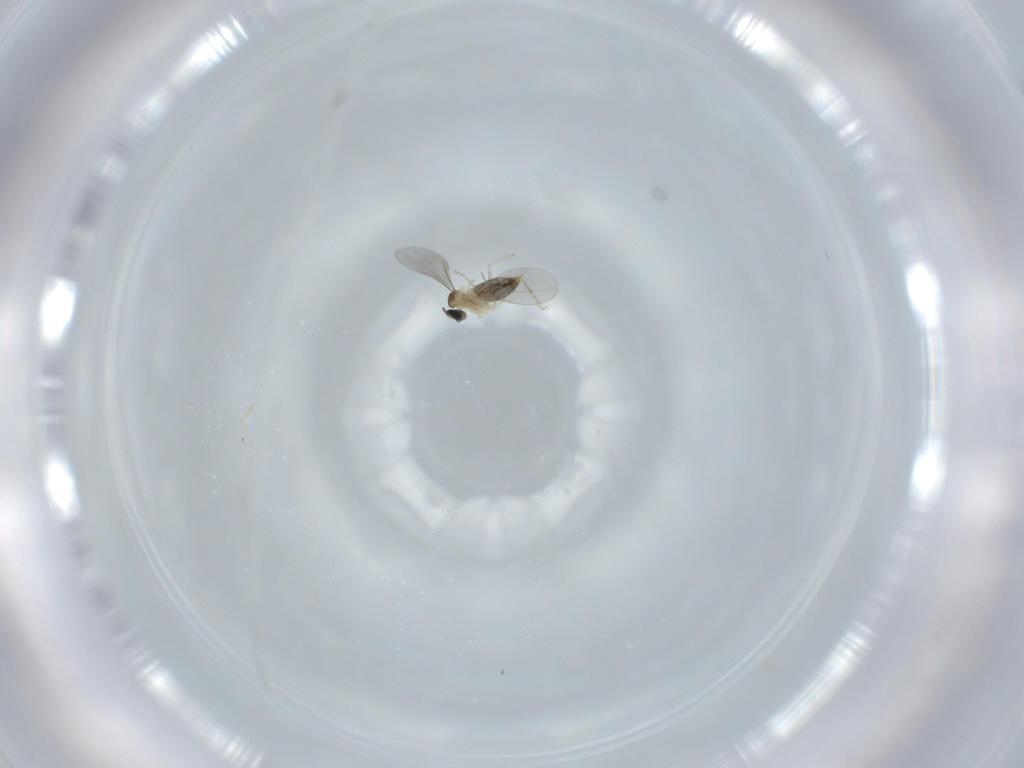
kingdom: Animalia
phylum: Arthropoda
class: Insecta
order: Diptera
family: Cecidomyiidae
